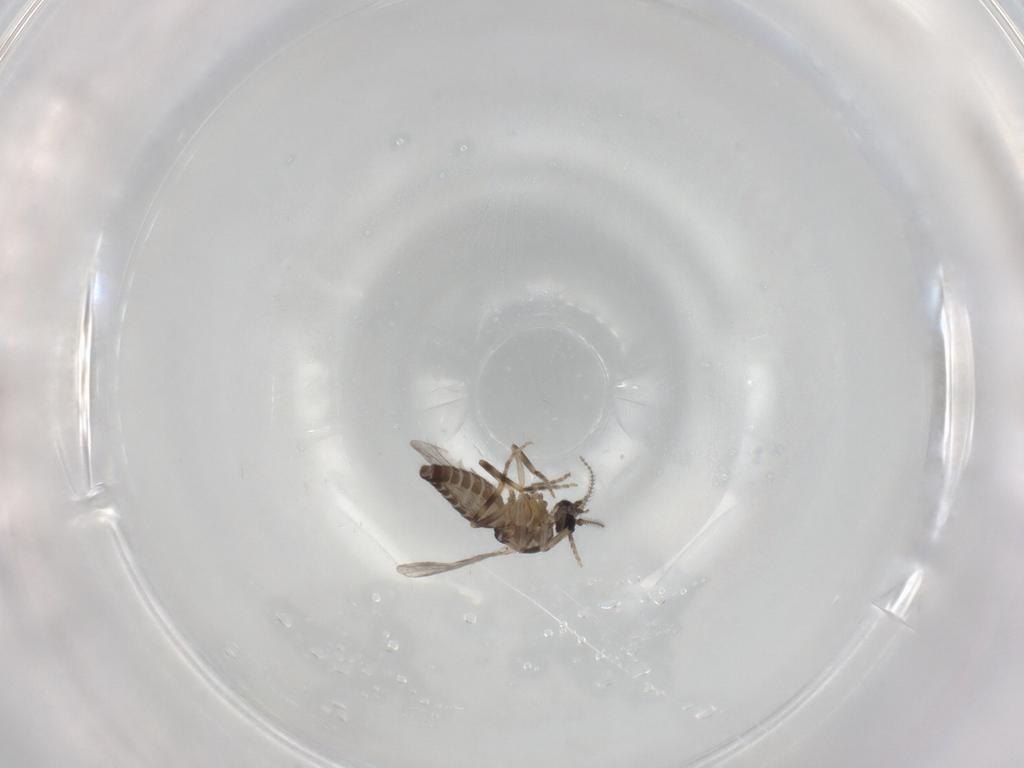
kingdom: Animalia
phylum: Arthropoda
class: Insecta
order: Diptera
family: Ceratopogonidae
